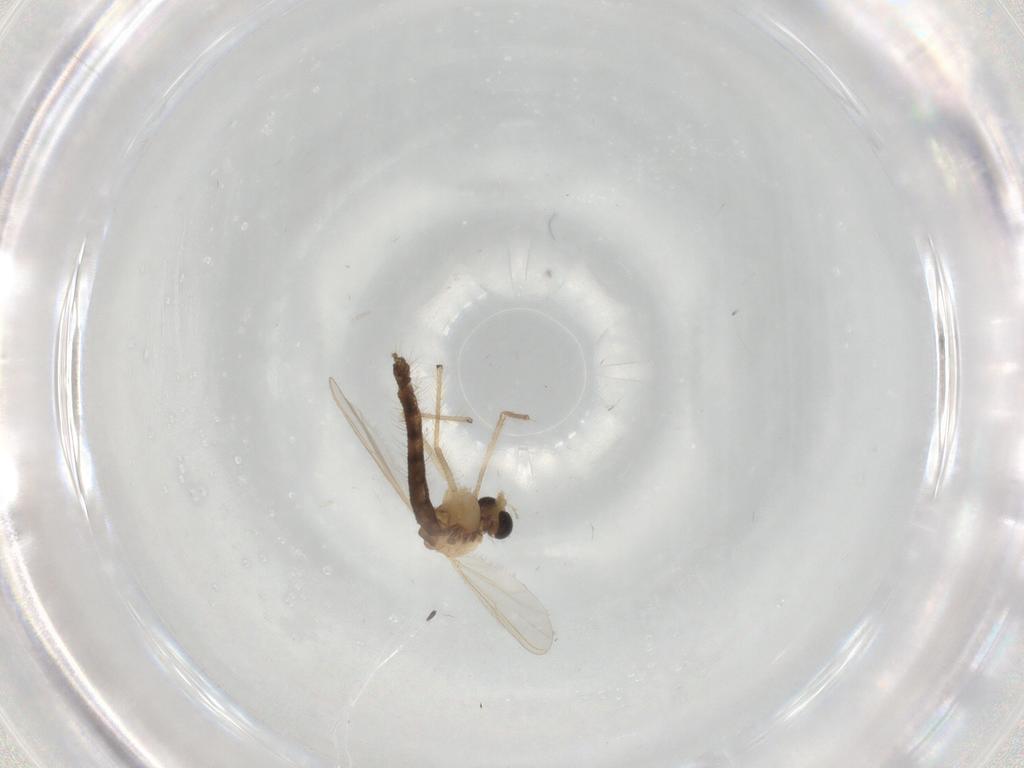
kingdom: Animalia
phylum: Arthropoda
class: Insecta
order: Diptera
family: Chironomidae
